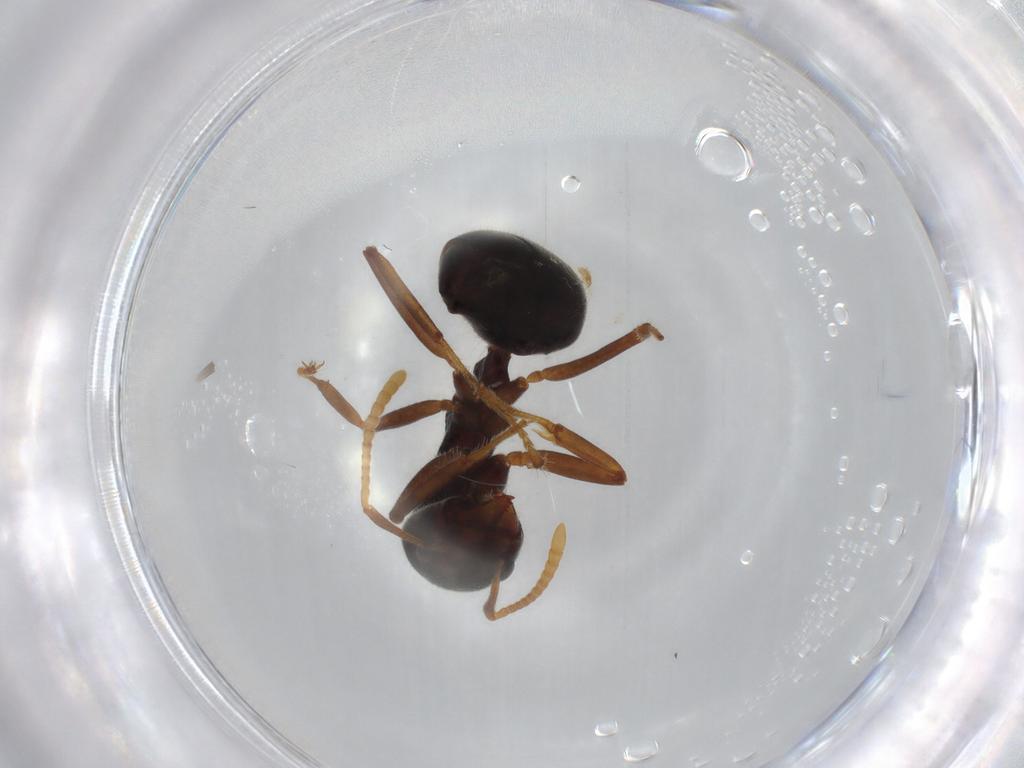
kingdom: Animalia
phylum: Arthropoda
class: Insecta
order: Hymenoptera
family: Formicidae
